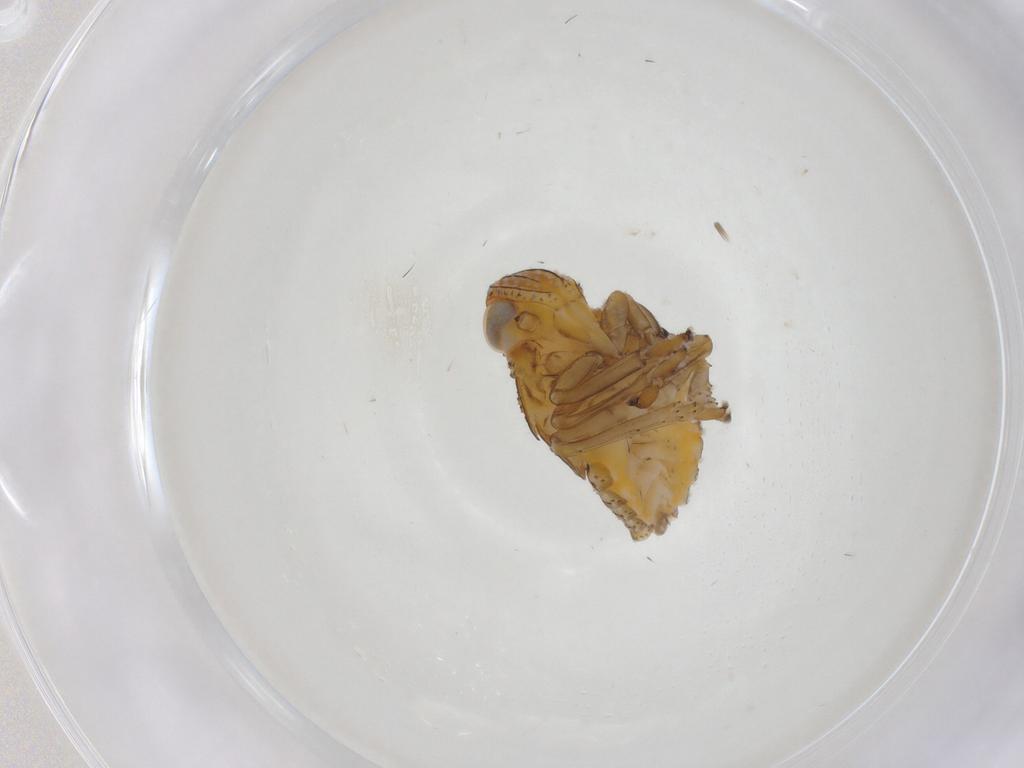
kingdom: Animalia
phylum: Arthropoda
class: Insecta
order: Hemiptera
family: Issidae
